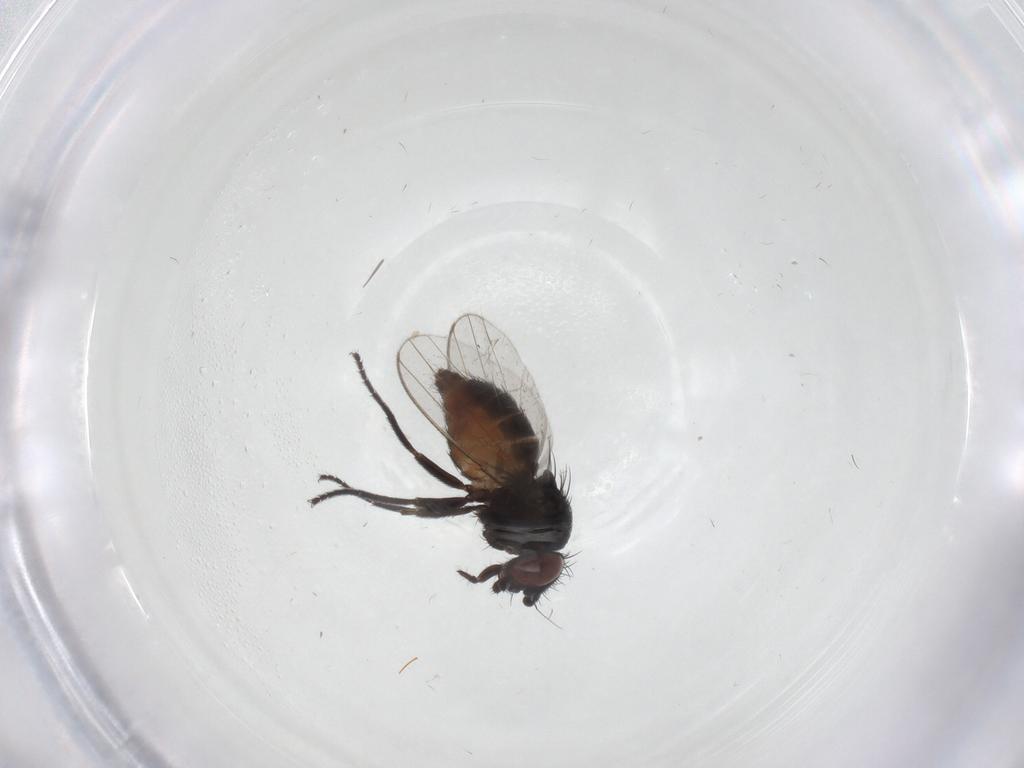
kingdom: Animalia
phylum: Arthropoda
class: Insecta
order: Diptera
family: Milichiidae
